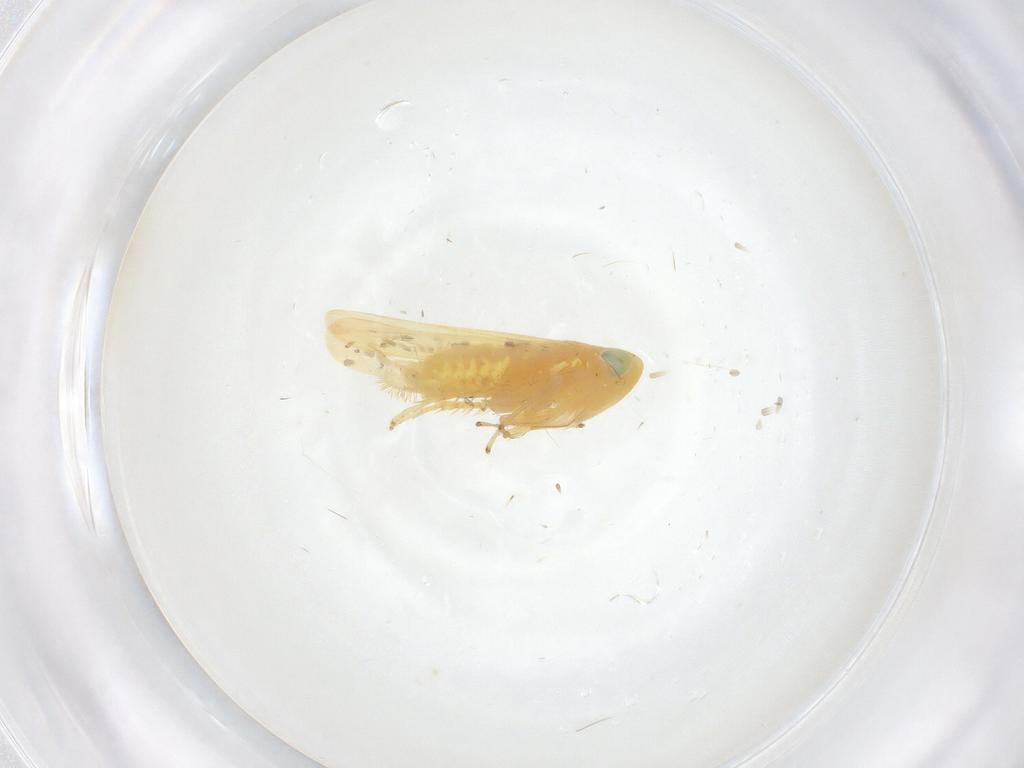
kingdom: Animalia
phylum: Arthropoda
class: Insecta
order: Hemiptera
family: Cicadellidae
